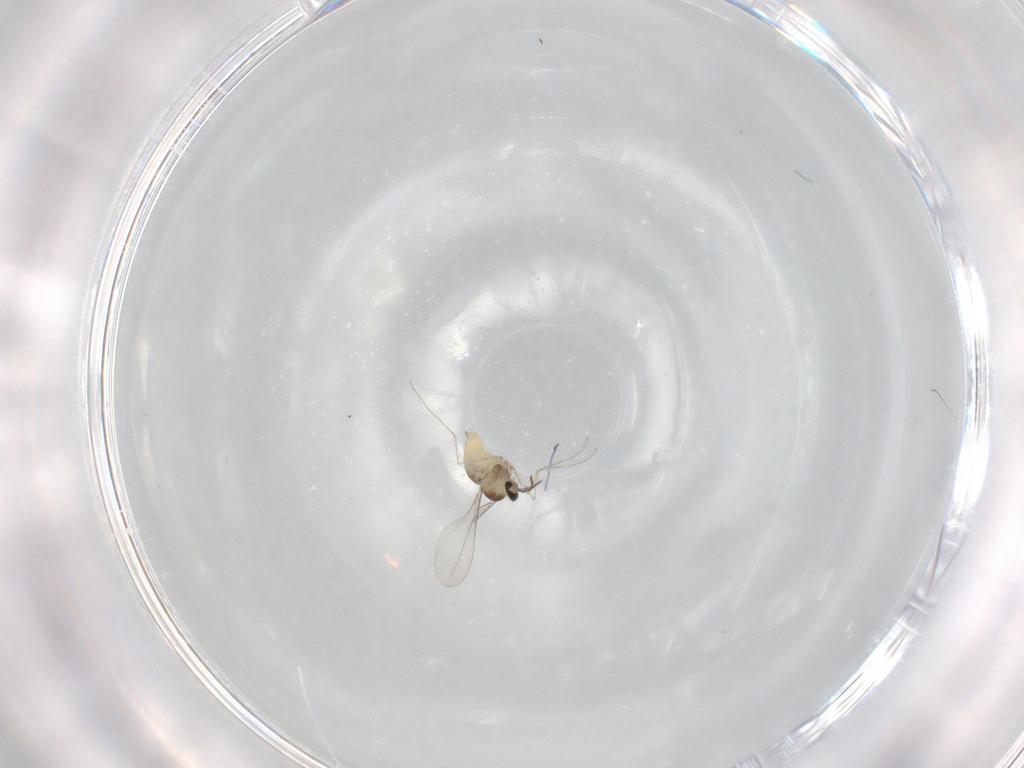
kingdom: Animalia
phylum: Arthropoda
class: Insecta
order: Diptera
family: Cecidomyiidae
